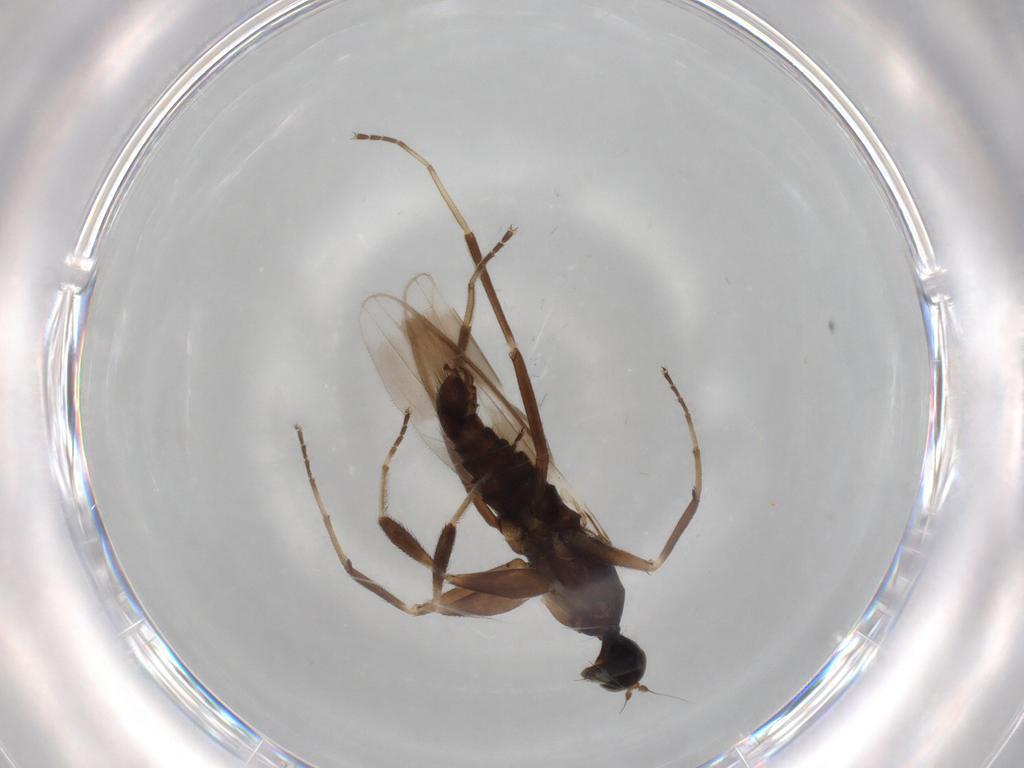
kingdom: Animalia
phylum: Arthropoda
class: Insecta
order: Diptera
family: Hybotidae
